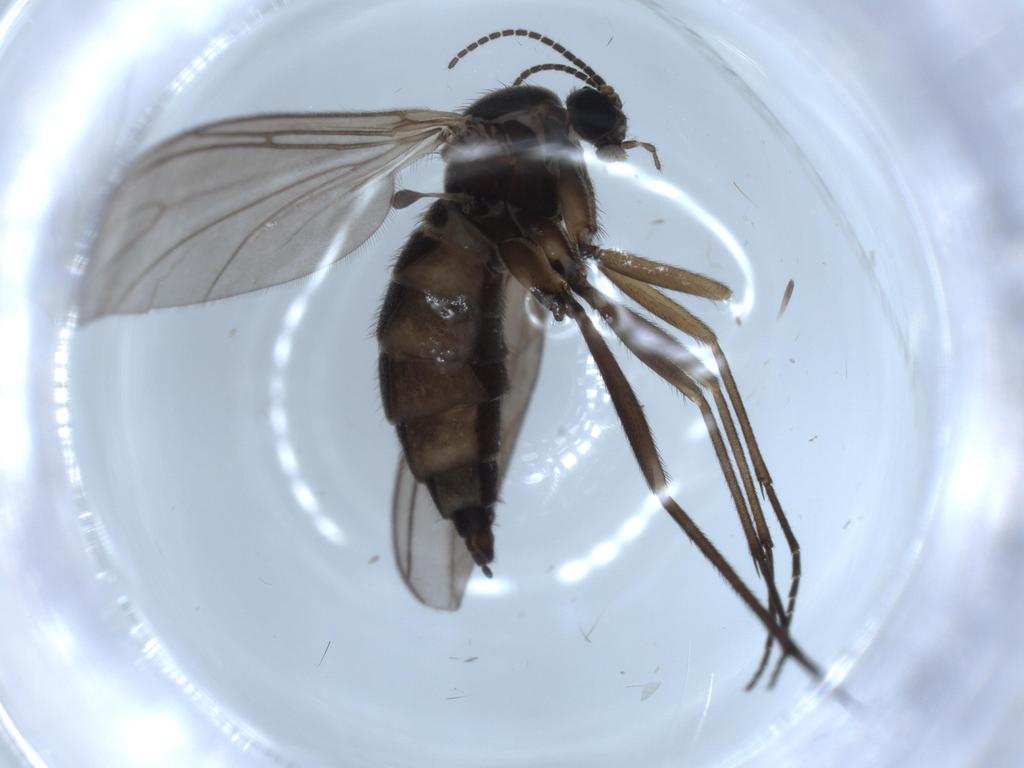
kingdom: Animalia
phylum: Arthropoda
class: Insecta
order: Diptera
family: Sciaridae
